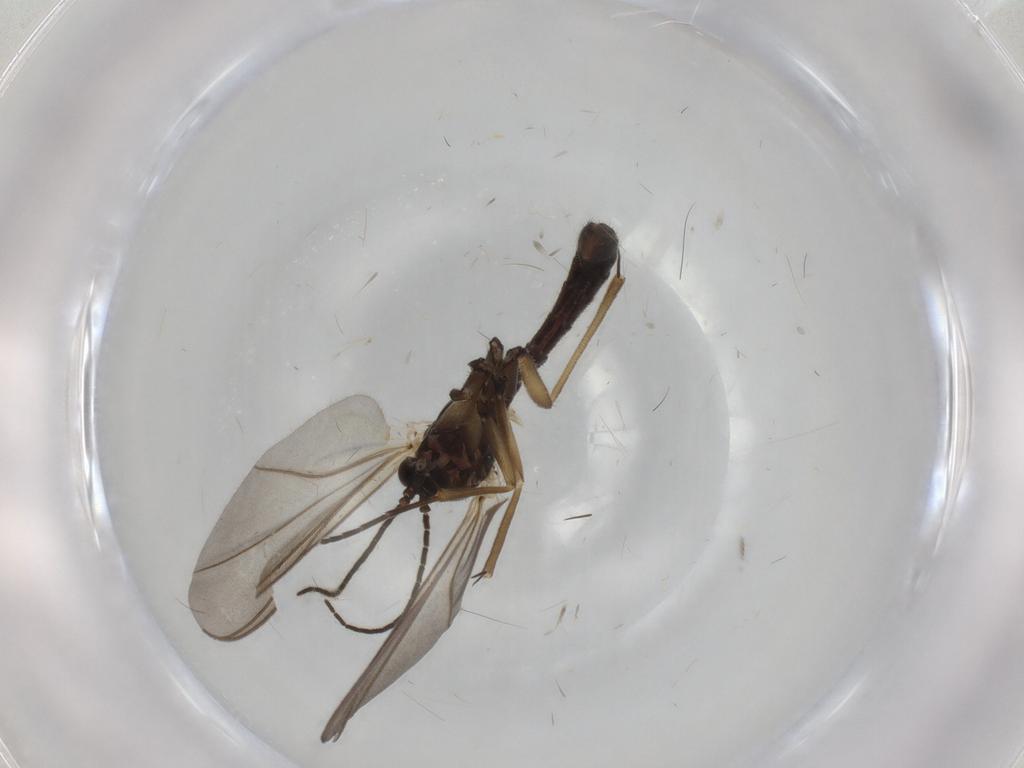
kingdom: Animalia
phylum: Arthropoda
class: Insecta
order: Diptera
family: Mycetophilidae
